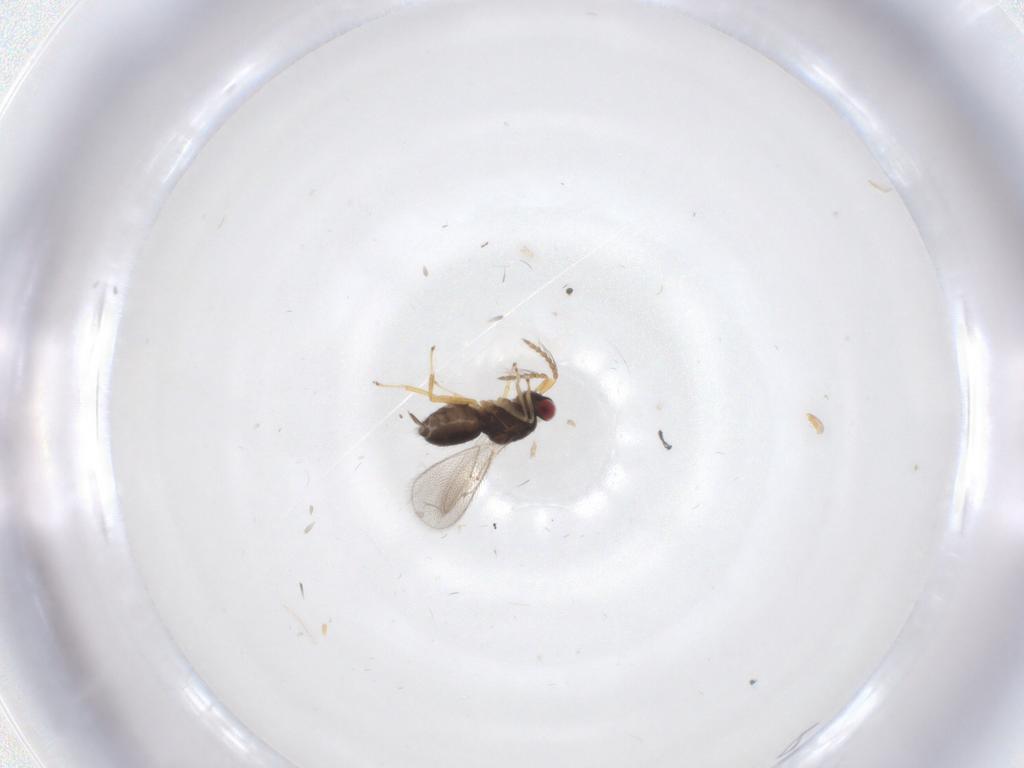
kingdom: Animalia
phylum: Arthropoda
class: Insecta
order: Hymenoptera
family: Eulophidae
